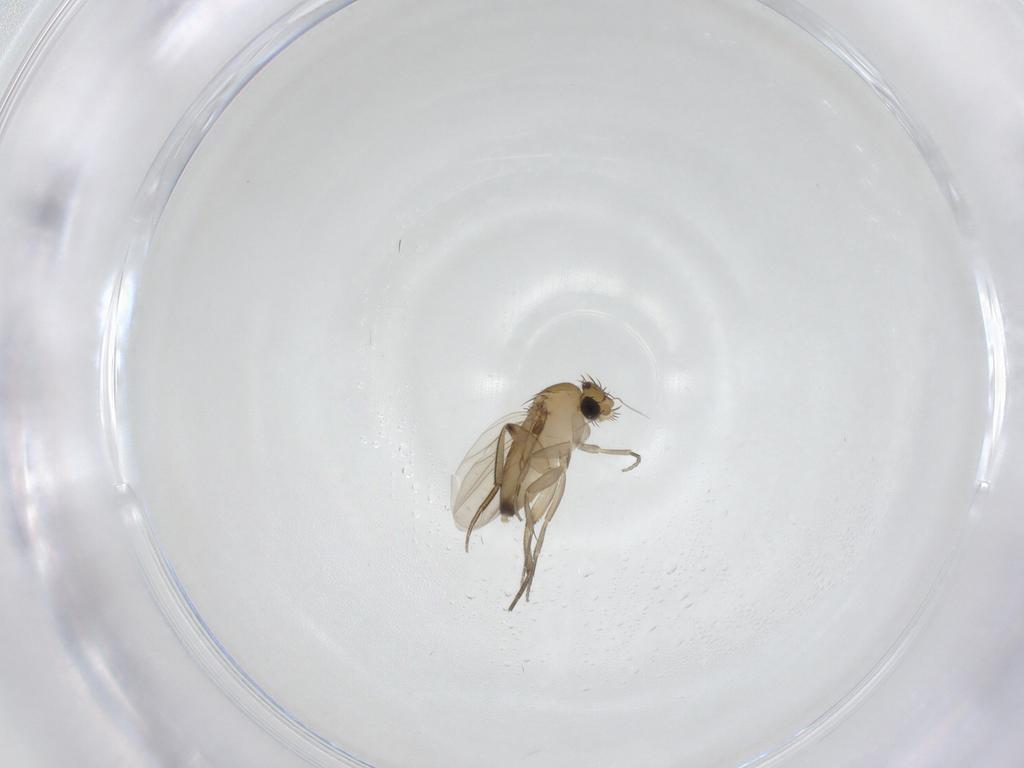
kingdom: Animalia
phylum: Arthropoda
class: Insecta
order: Diptera
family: Phoridae
